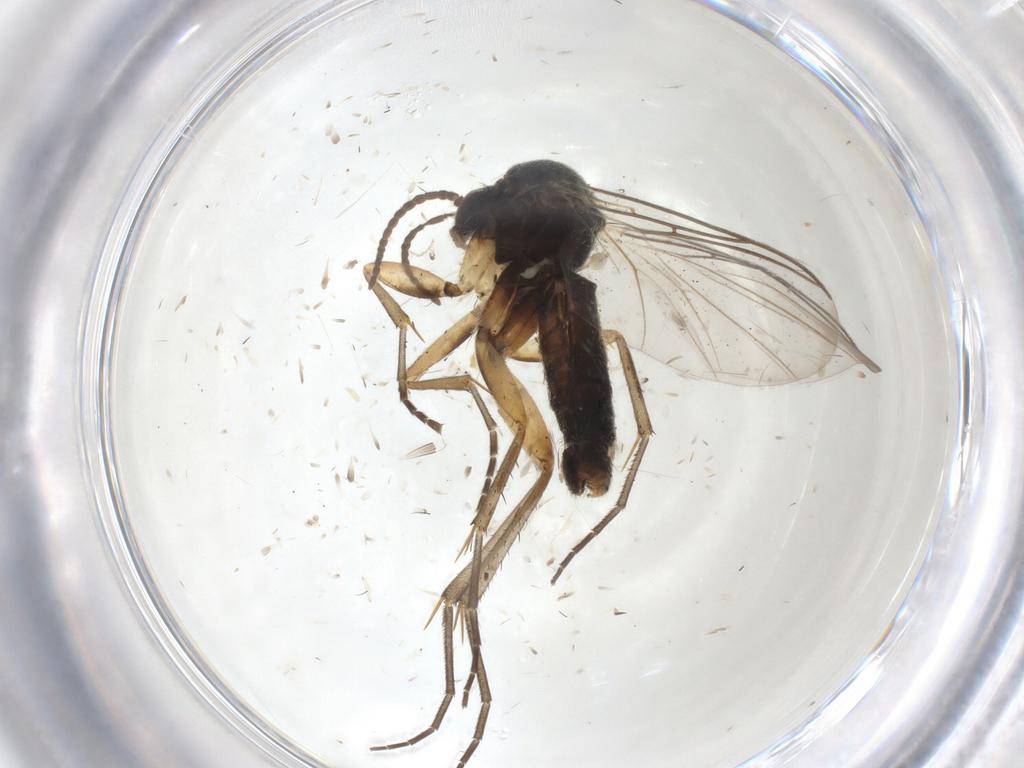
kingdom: Animalia
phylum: Arthropoda
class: Insecta
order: Diptera
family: Mycetophilidae
